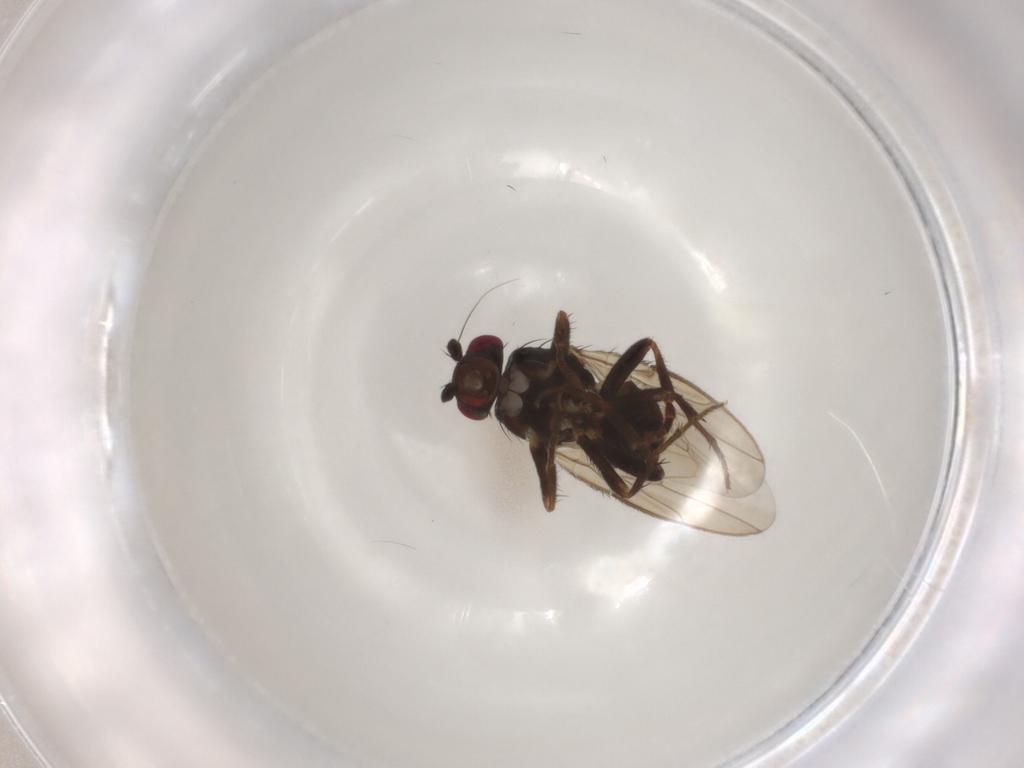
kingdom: Animalia
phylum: Arthropoda
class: Insecta
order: Diptera
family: Sphaeroceridae
